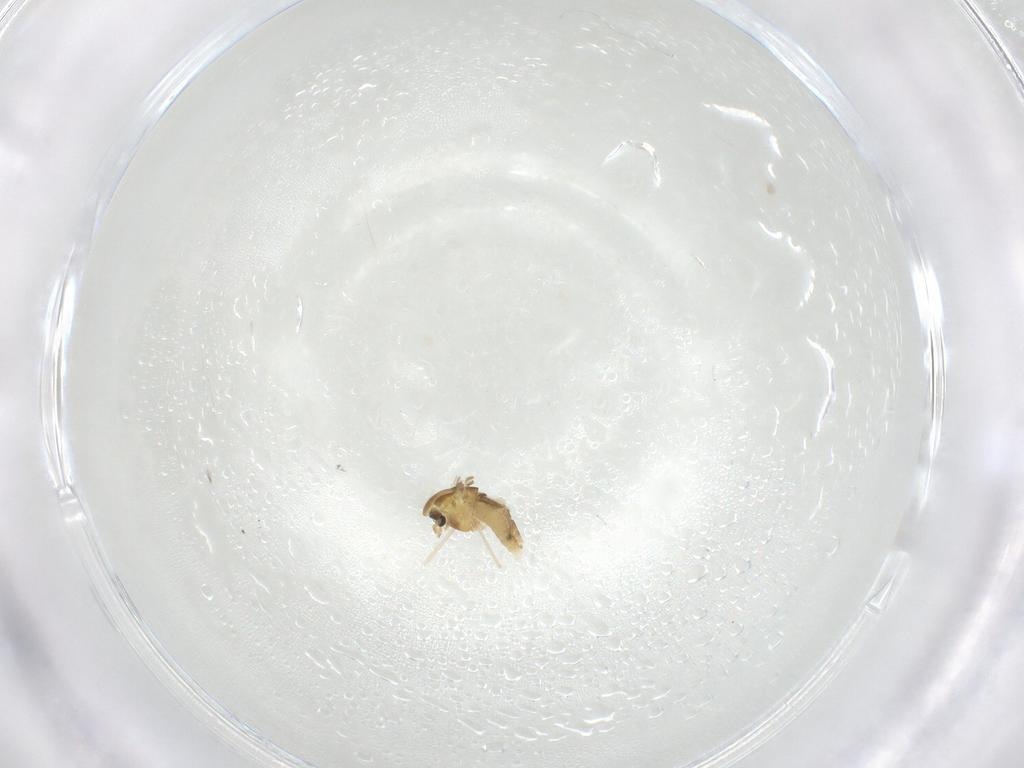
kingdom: Animalia
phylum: Arthropoda
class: Insecta
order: Diptera
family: Chironomidae
